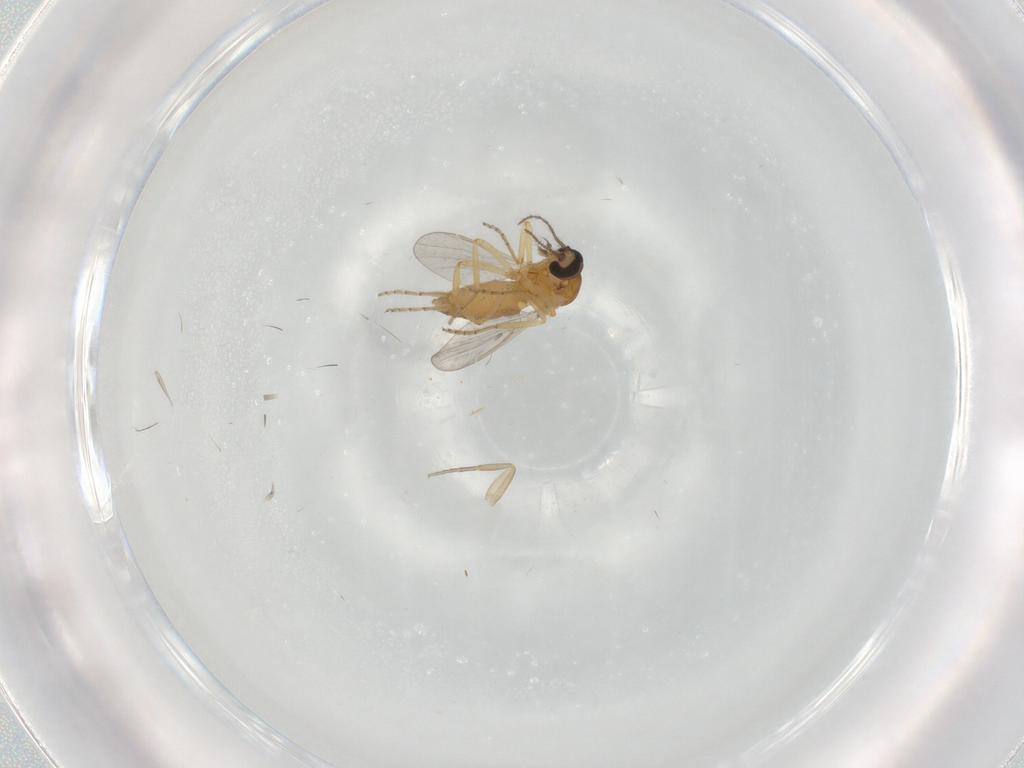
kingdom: Animalia
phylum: Arthropoda
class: Insecta
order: Diptera
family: Ceratopogonidae
